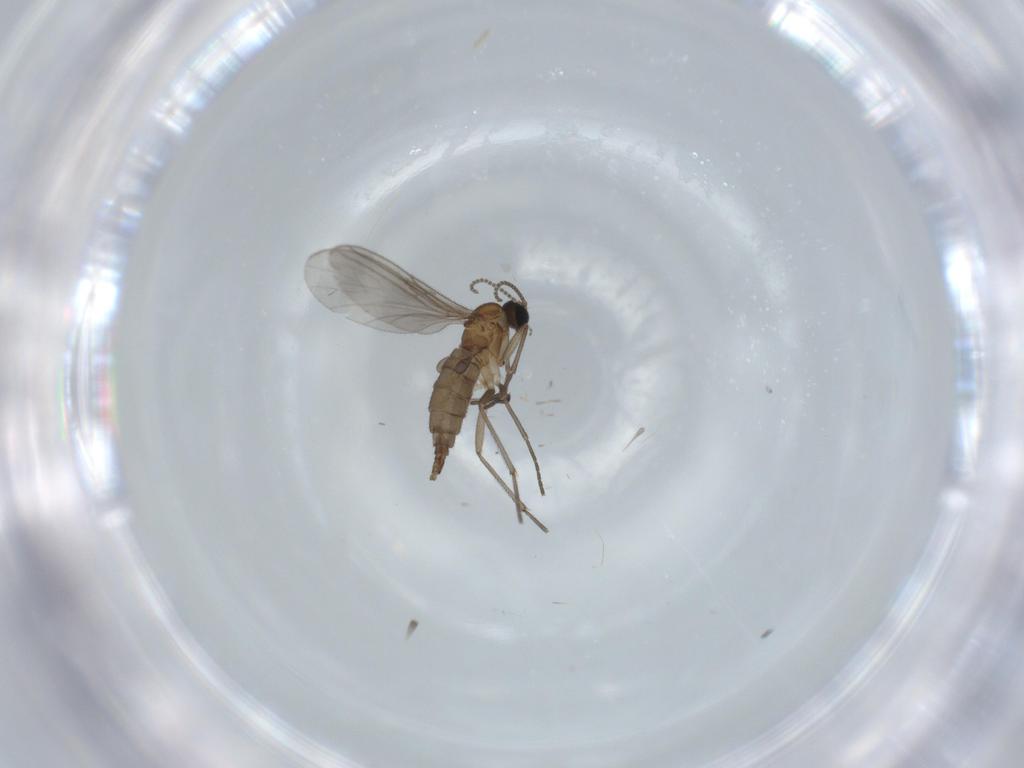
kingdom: Animalia
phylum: Arthropoda
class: Insecta
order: Diptera
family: Sciaridae
